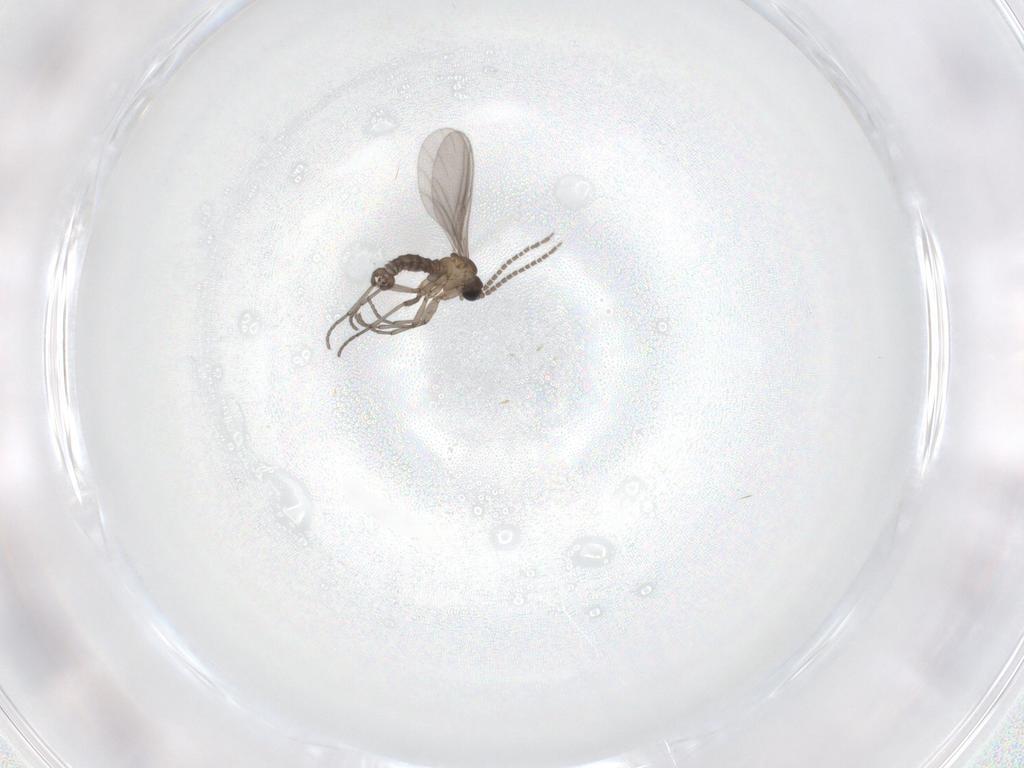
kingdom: Animalia
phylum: Arthropoda
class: Insecta
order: Diptera
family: Sciaridae
